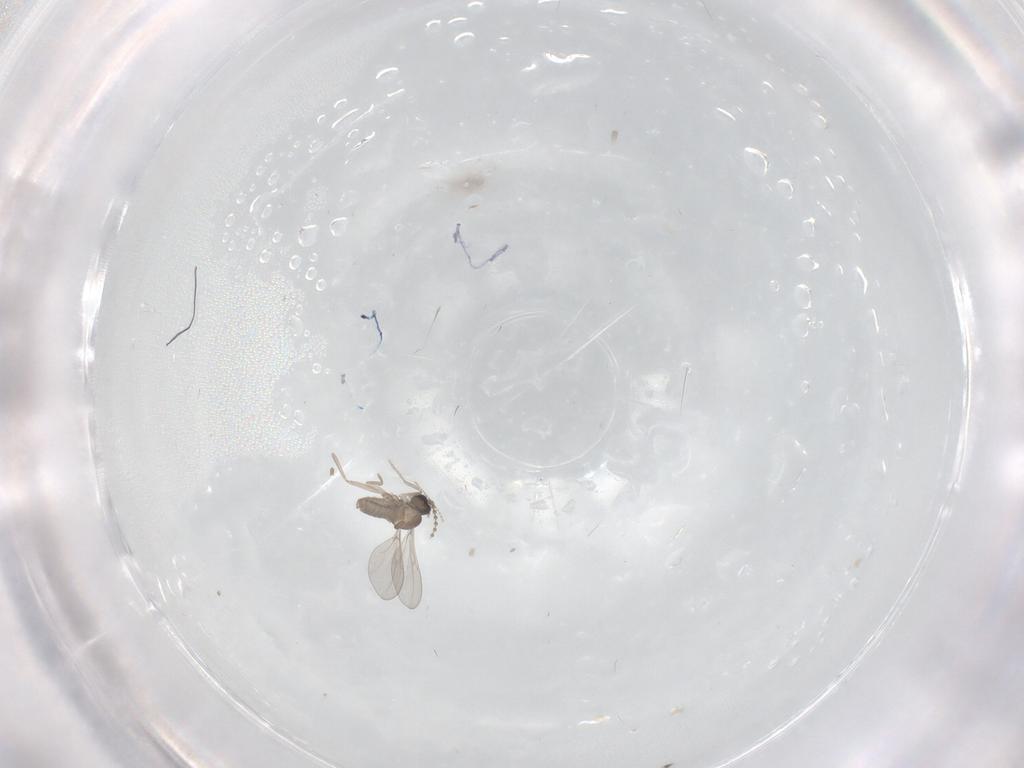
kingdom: Animalia
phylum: Arthropoda
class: Insecta
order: Diptera
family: Cecidomyiidae
